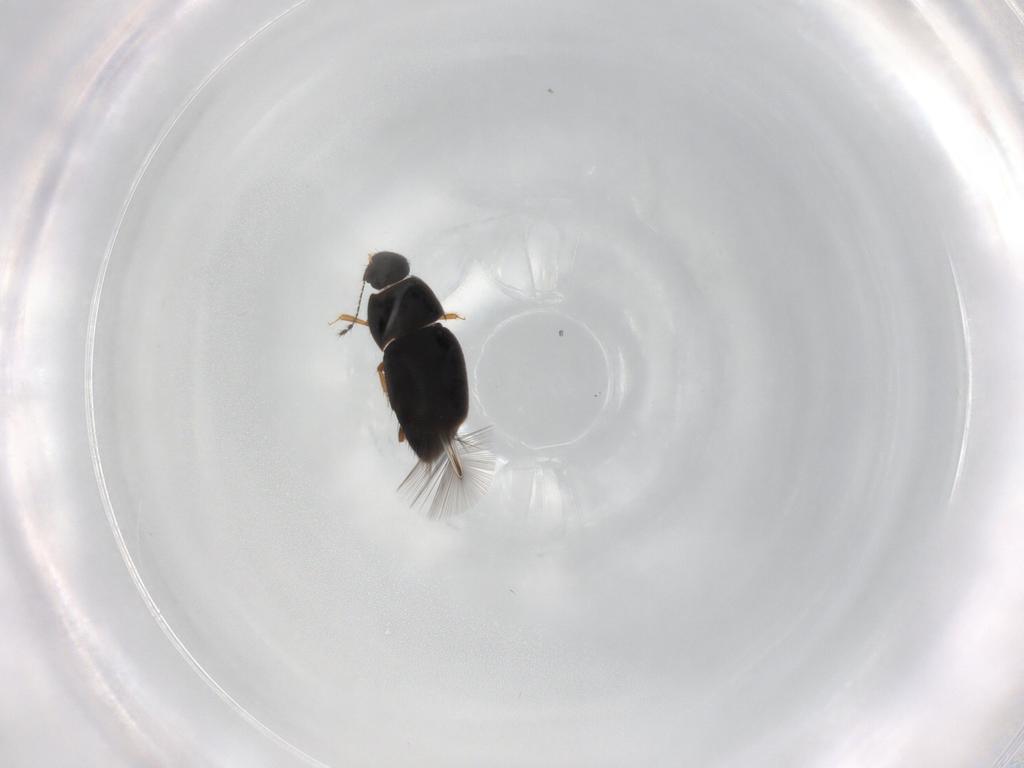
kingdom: Animalia
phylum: Arthropoda
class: Insecta
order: Coleoptera
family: Ptiliidae
